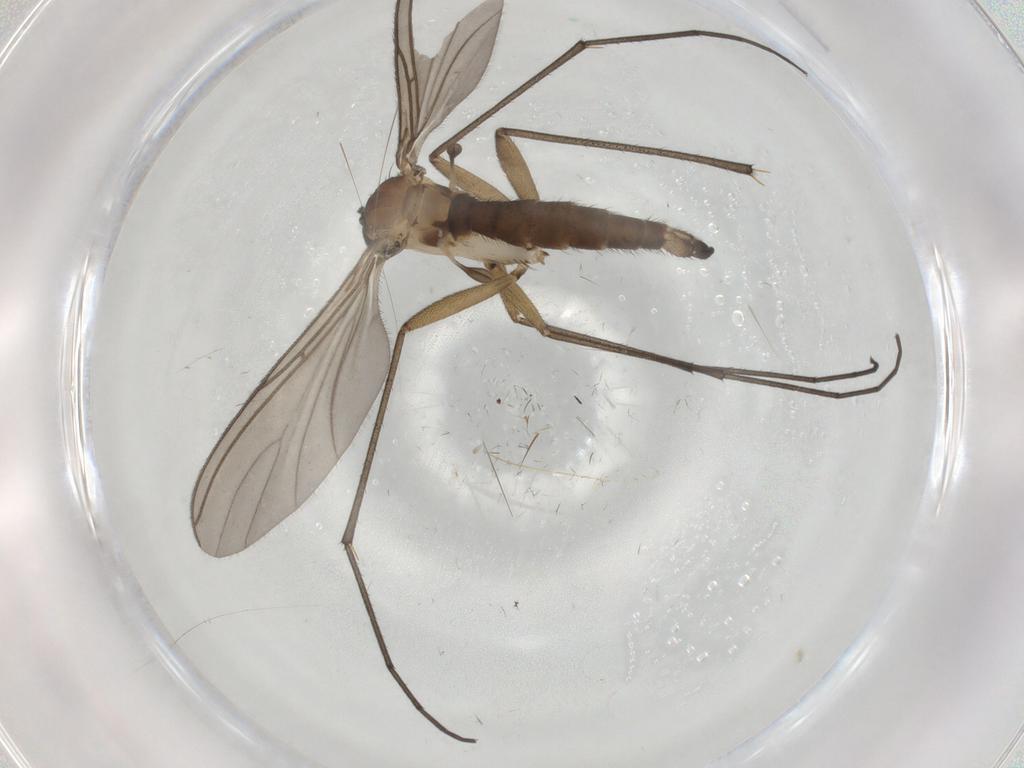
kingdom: Animalia
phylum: Arthropoda
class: Insecta
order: Diptera
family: Sciaridae
